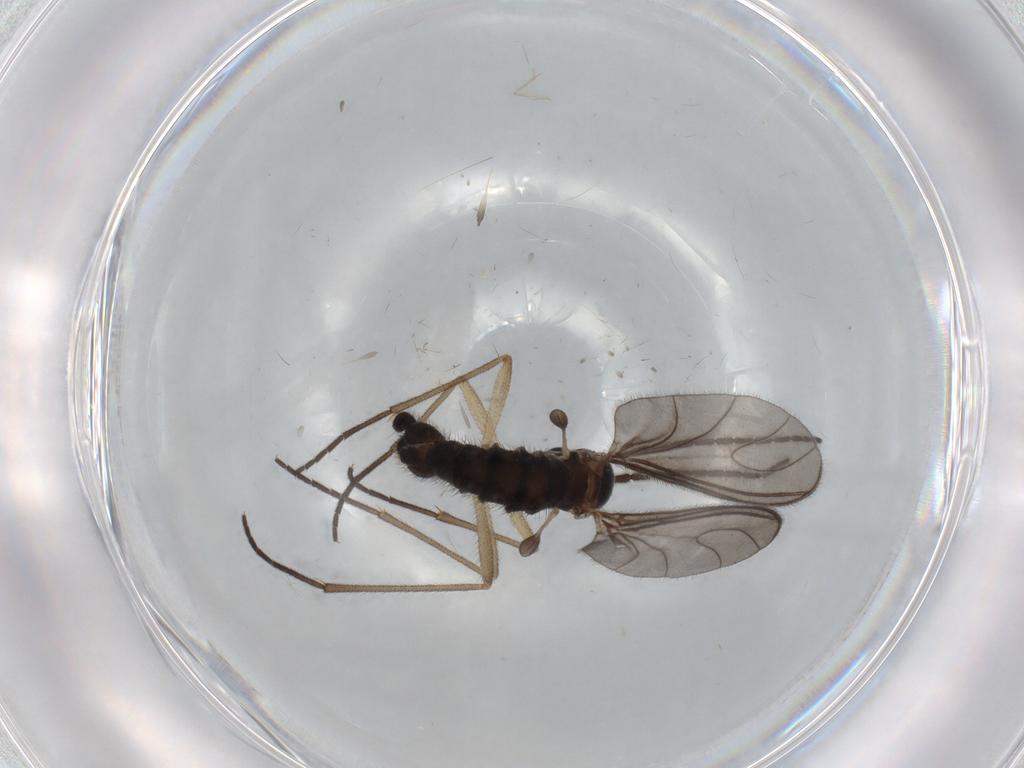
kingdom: Animalia
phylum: Arthropoda
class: Insecta
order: Diptera
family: Sciaridae
